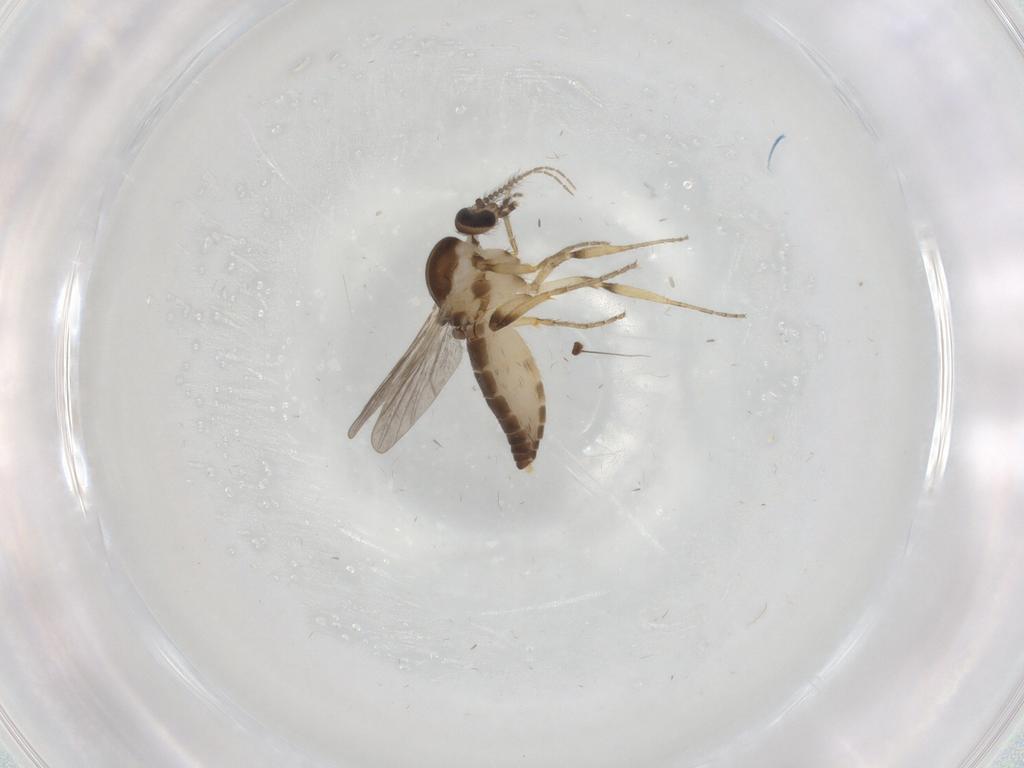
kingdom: Animalia
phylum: Arthropoda
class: Insecta
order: Diptera
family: Ceratopogonidae
